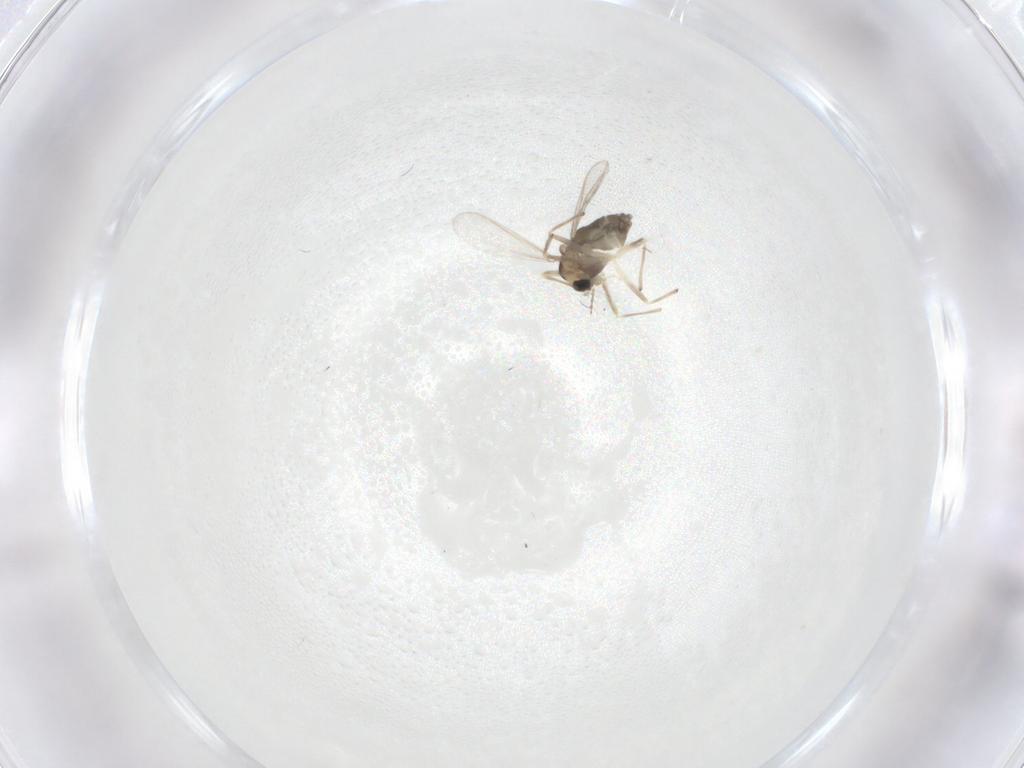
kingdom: Animalia
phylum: Arthropoda
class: Insecta
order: Diptera
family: Chironomidae
